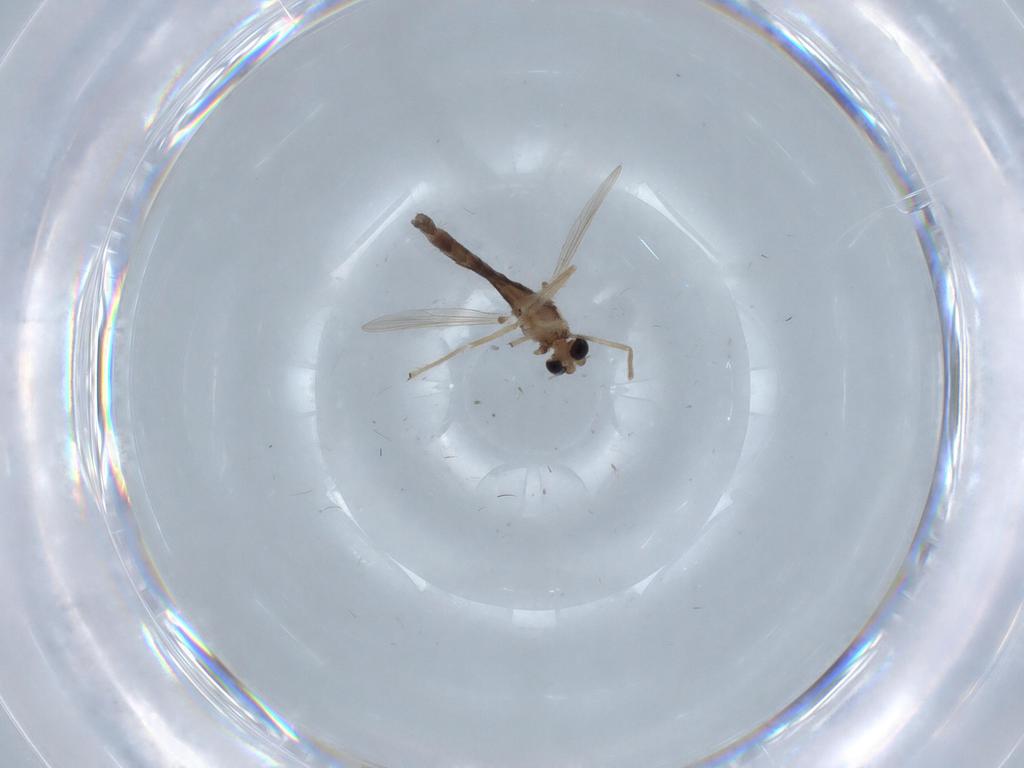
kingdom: Animalia
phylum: Arthropoda
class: Insecta
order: Diptera
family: Chironomidae
